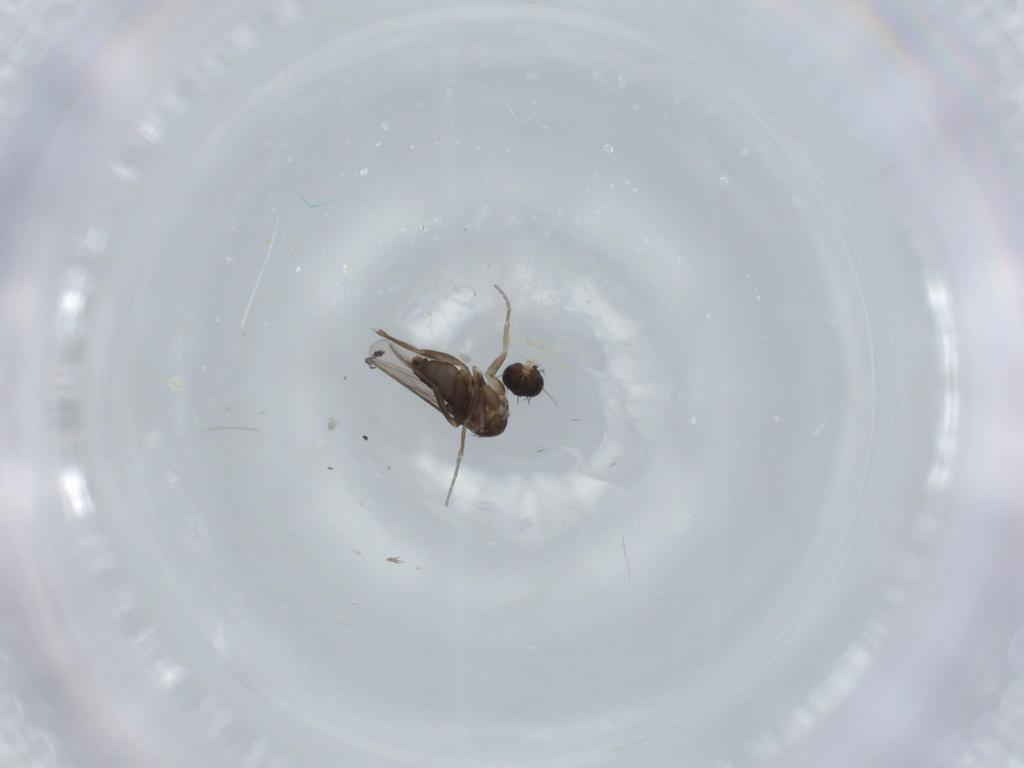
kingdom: Animalia
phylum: Arthropoda
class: Insecta
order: Diptera
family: Phoridae
